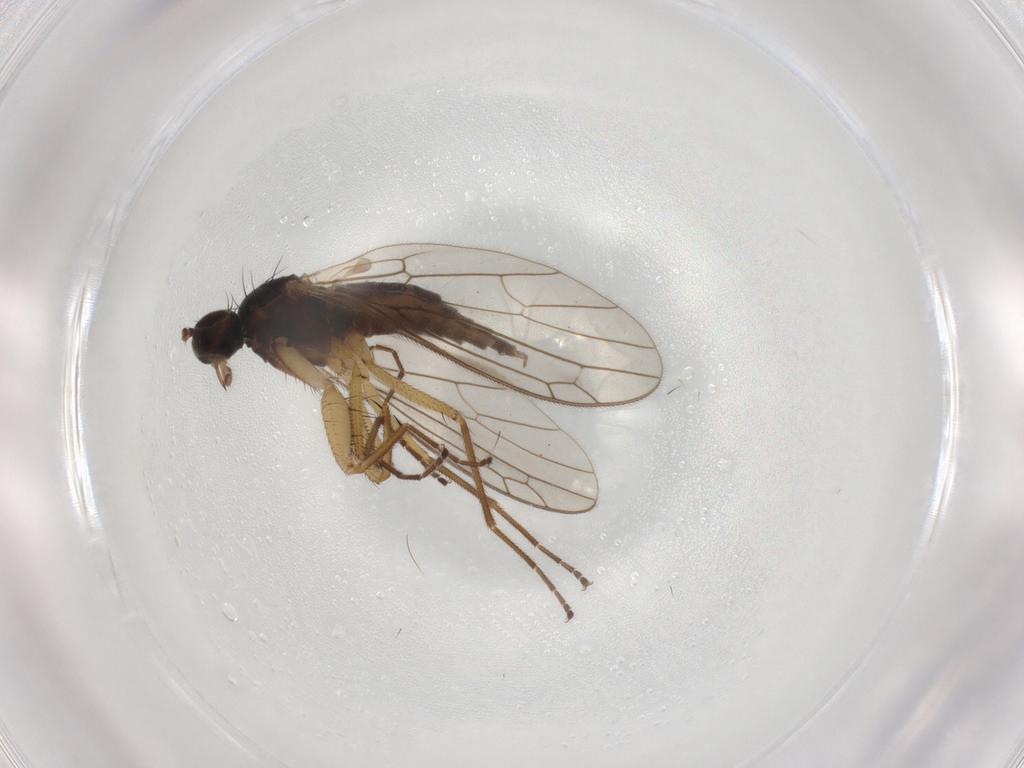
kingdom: Animalia
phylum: Arthropoda
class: Insecta
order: Diptera
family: Empididae
